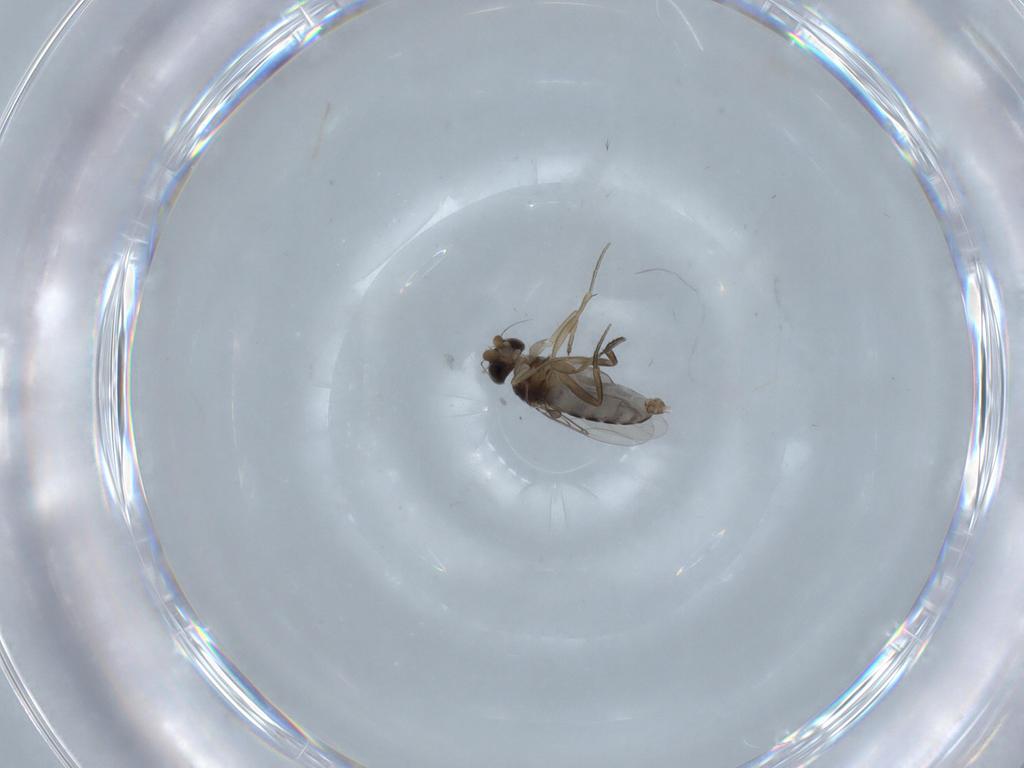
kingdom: Animalia
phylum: Arthropoda
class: Insecta
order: Diptera
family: Phoridae
